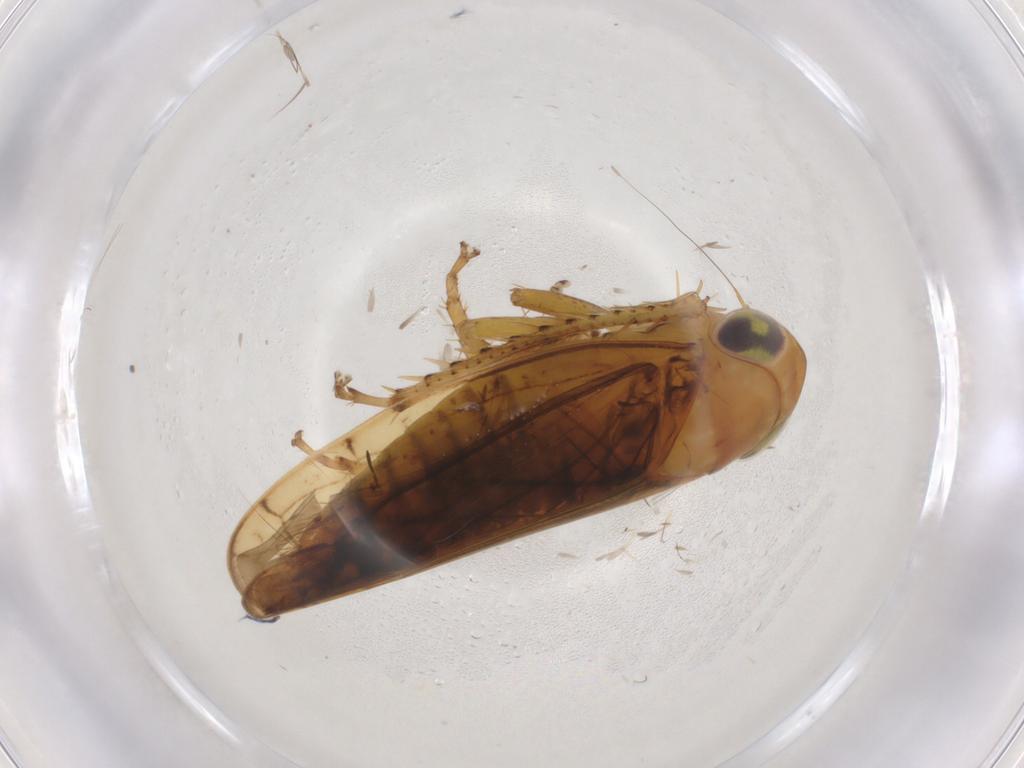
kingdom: Animalia
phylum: Arthropoda
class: Insecta
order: Hemiptera
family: Cicadellidae
